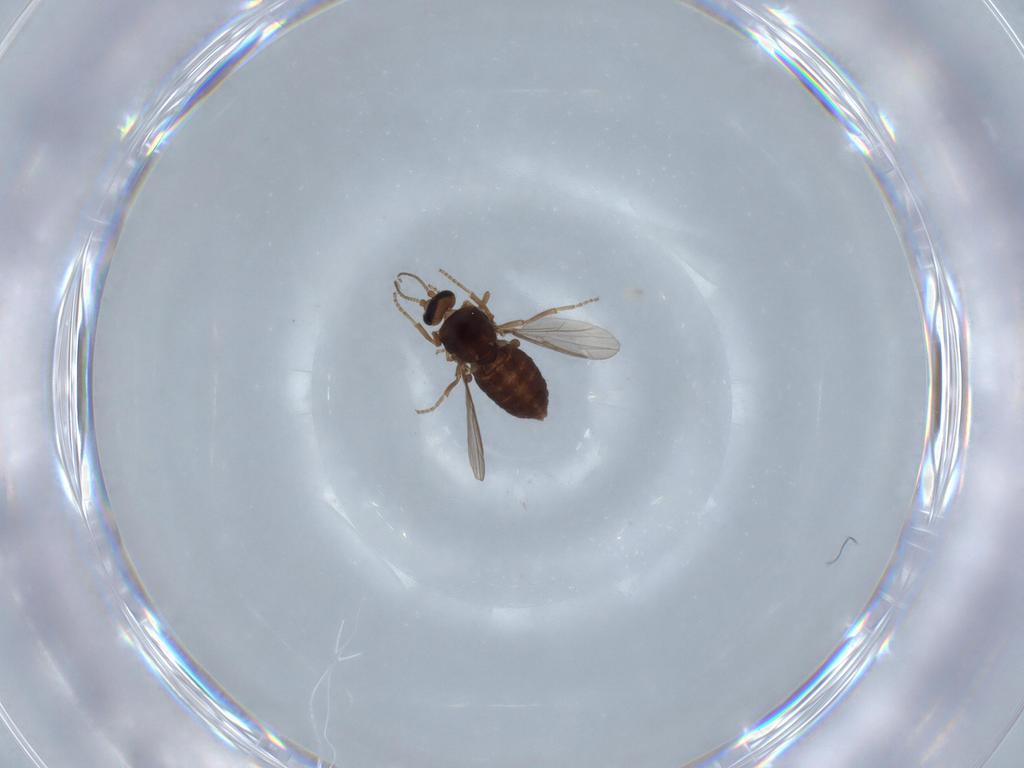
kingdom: Animalia
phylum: Arthropoda
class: Insecta
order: Diptera
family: Ceratopogonidae
